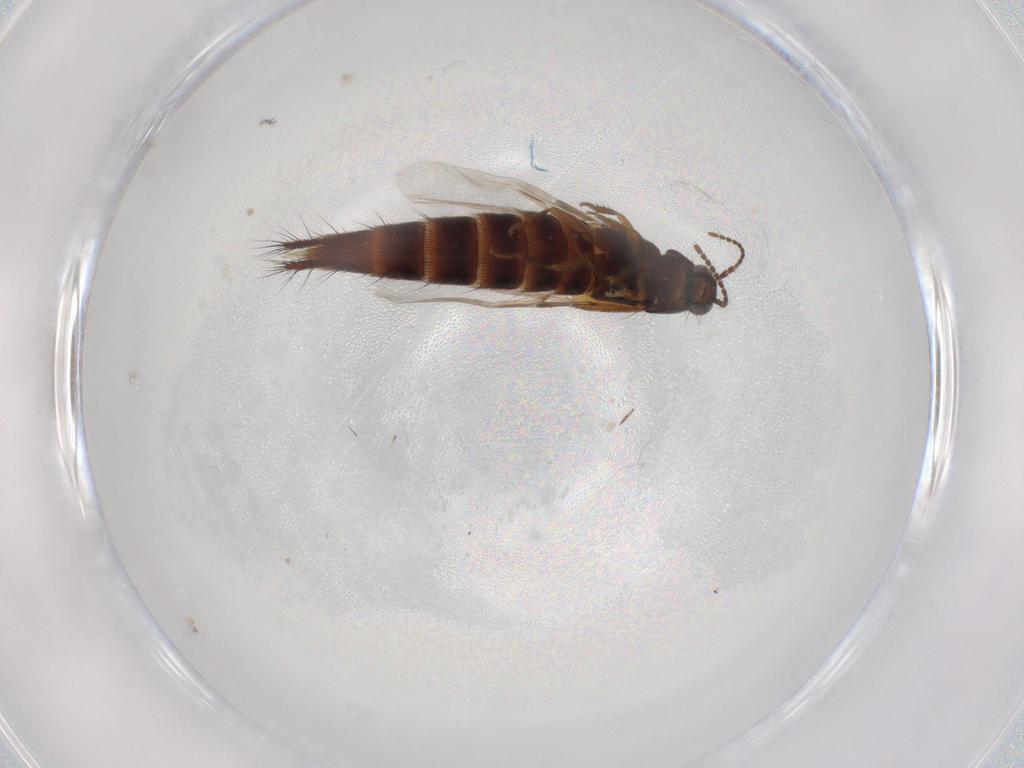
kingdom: Animalia
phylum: Arthropoda
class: Insecta
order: Coleoptera
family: Staphylinidae
